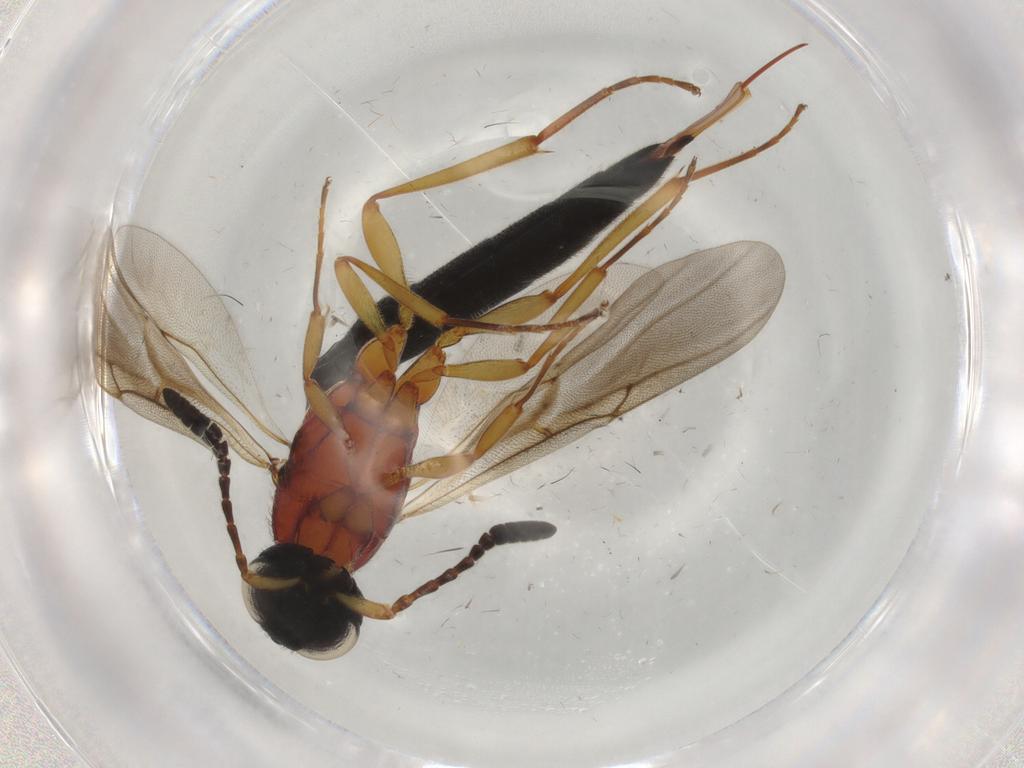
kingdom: Animalia
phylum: Arthropoda
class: Insecta
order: Hymenoptera
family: Scelionidae
